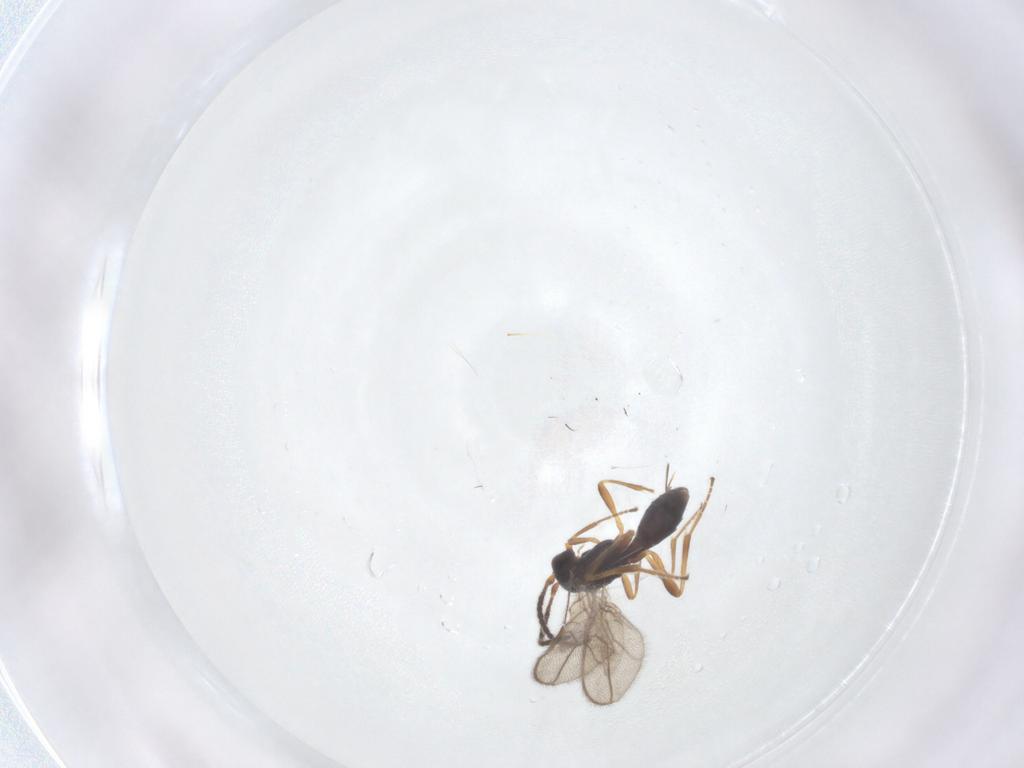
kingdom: Animalia
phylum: Arthropoda
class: Insecta
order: Hymenoptera
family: Braconidae
